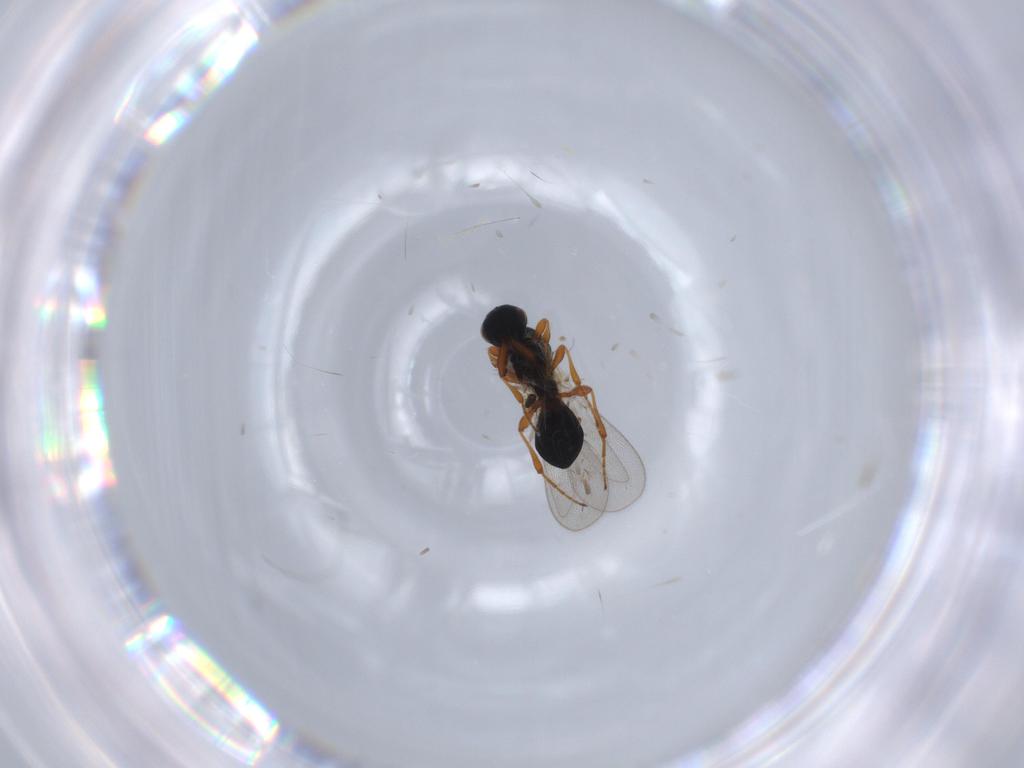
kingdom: Animalia
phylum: Arthropoda
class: Insecta
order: Hymenoptera
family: Platygastridae
